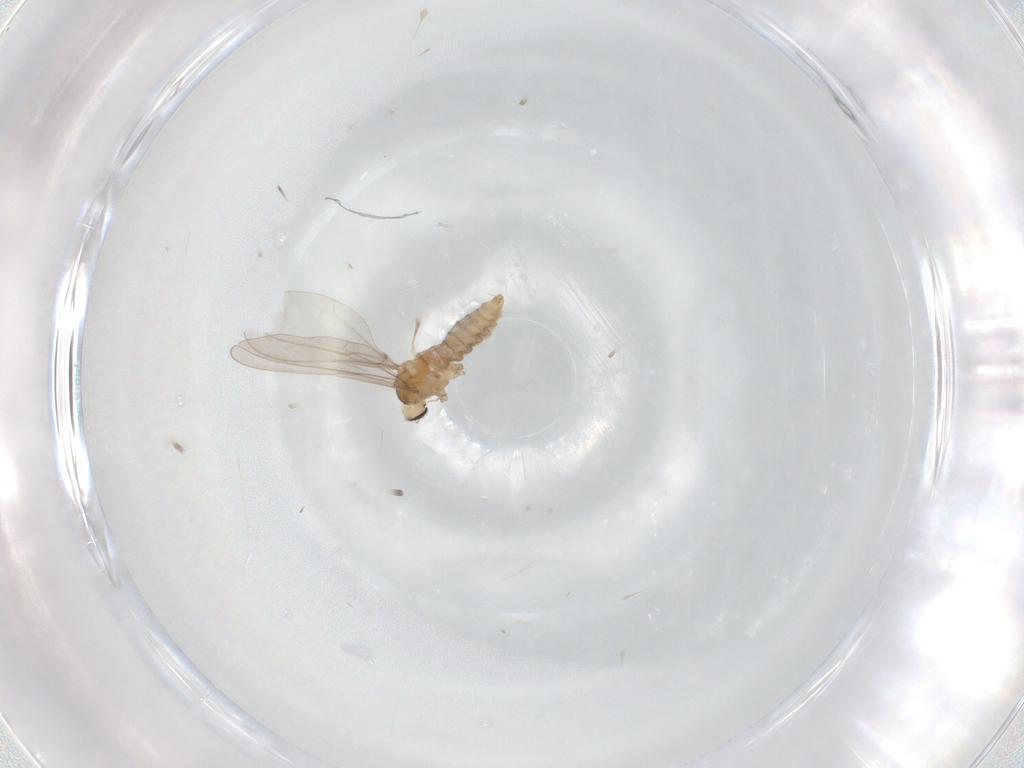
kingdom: Animalia
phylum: Arthropoda
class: Insecta
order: Diptera
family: Cecidomyiidae
